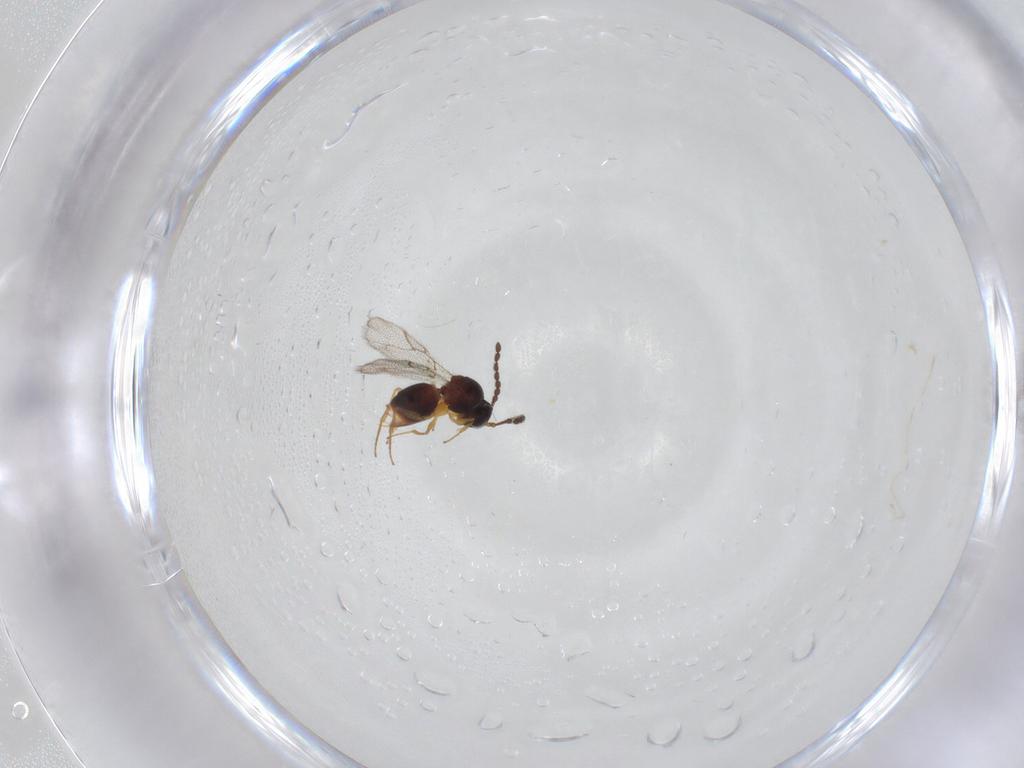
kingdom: Animalia
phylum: Arthropoda
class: Insecta
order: Hymenoptera
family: Figitidae
